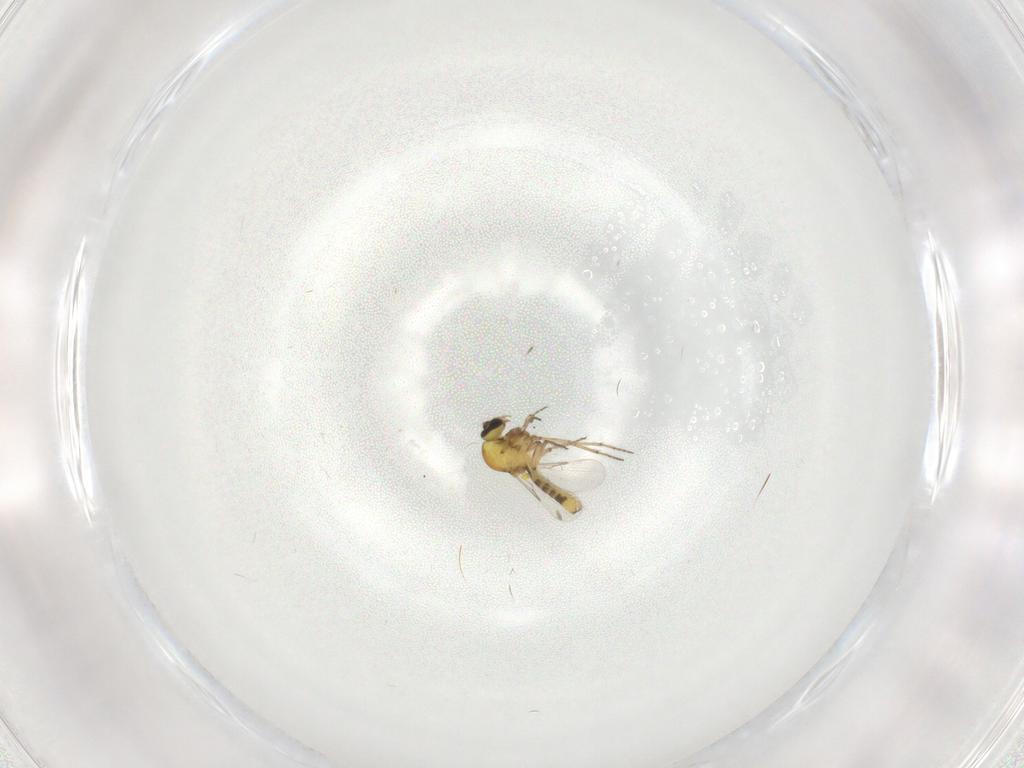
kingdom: Animalia
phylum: Arthropoda
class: Insecta
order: Diptera
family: Ceratopogonidae
